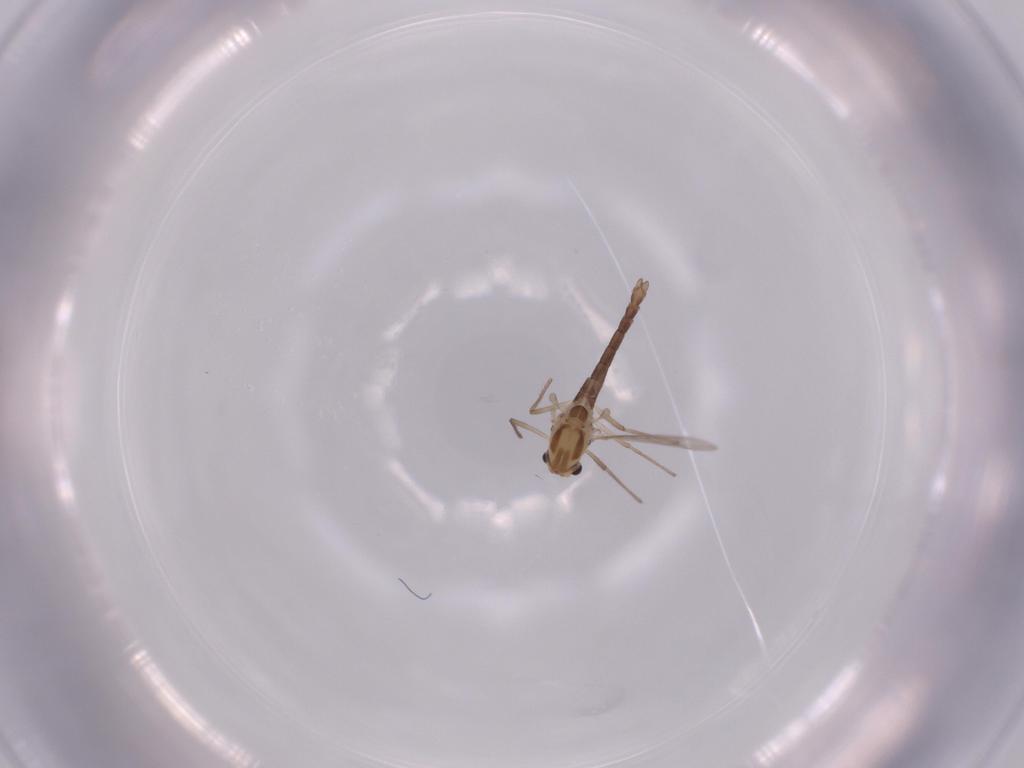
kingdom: Animalia
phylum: Arthropoda
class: Insecta
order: Diptera
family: Chironomidae
